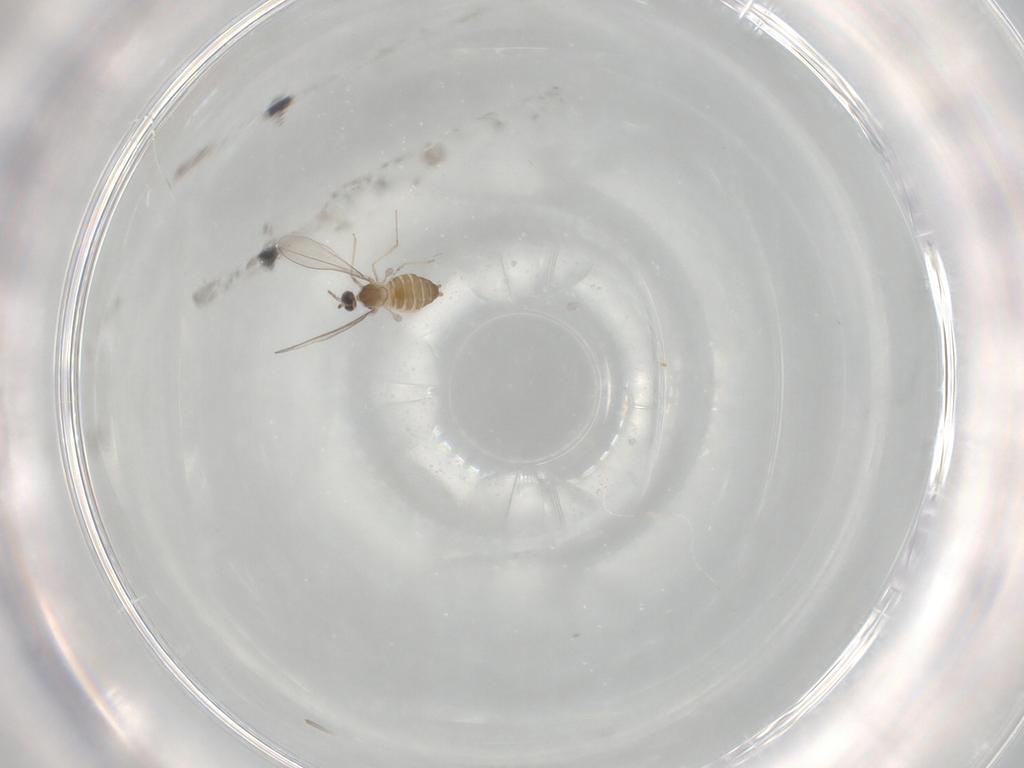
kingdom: Animalia
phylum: Arthropoda
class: Insecta
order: Diptera
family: Cecidomyiidae
